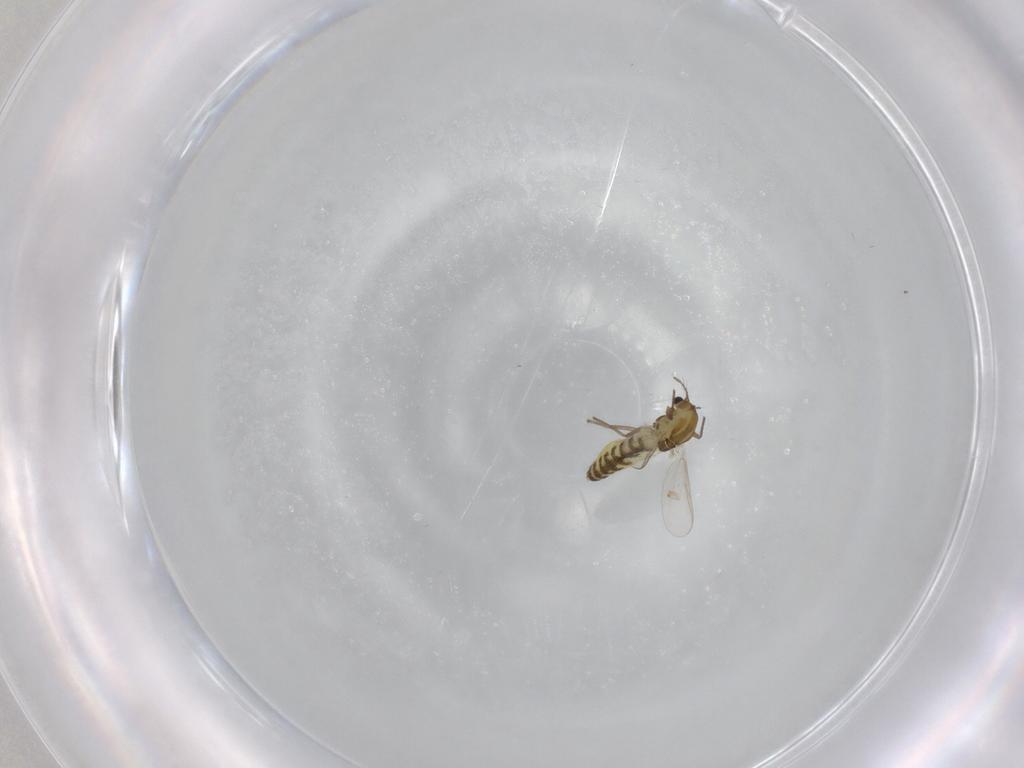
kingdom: Animalia
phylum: Arthropoda
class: Insecta
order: Diptera
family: Chironomidae
